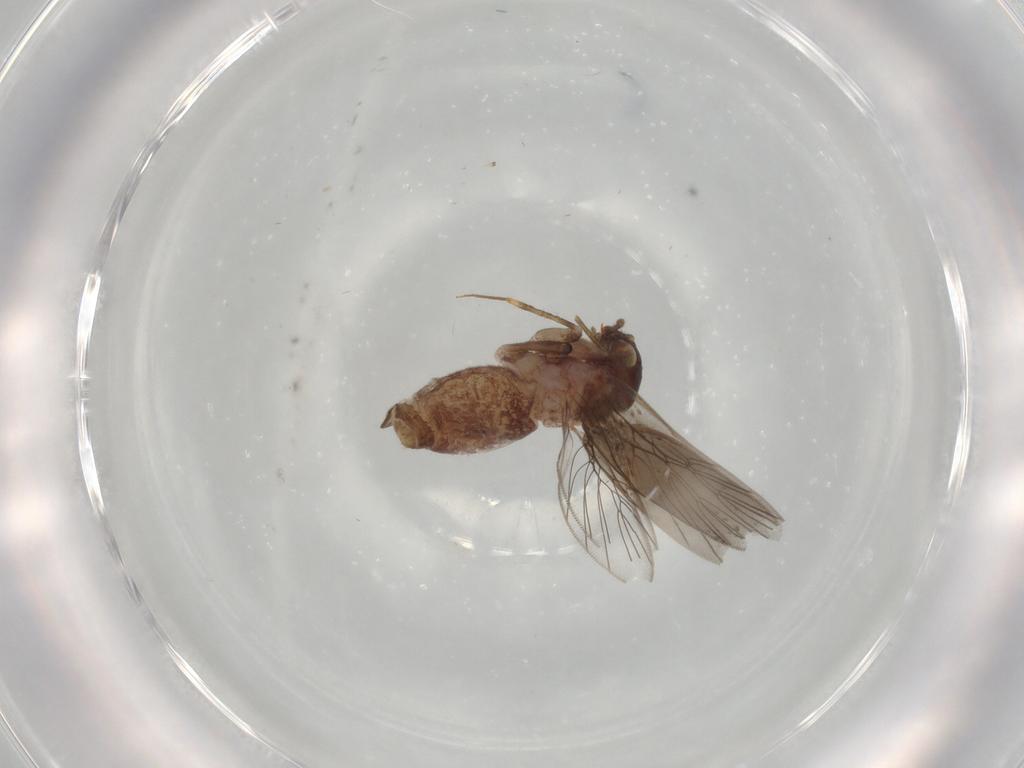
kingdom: Animalia
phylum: Arthropoda
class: Insecta
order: Psocodea
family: Lepidopsocidae
